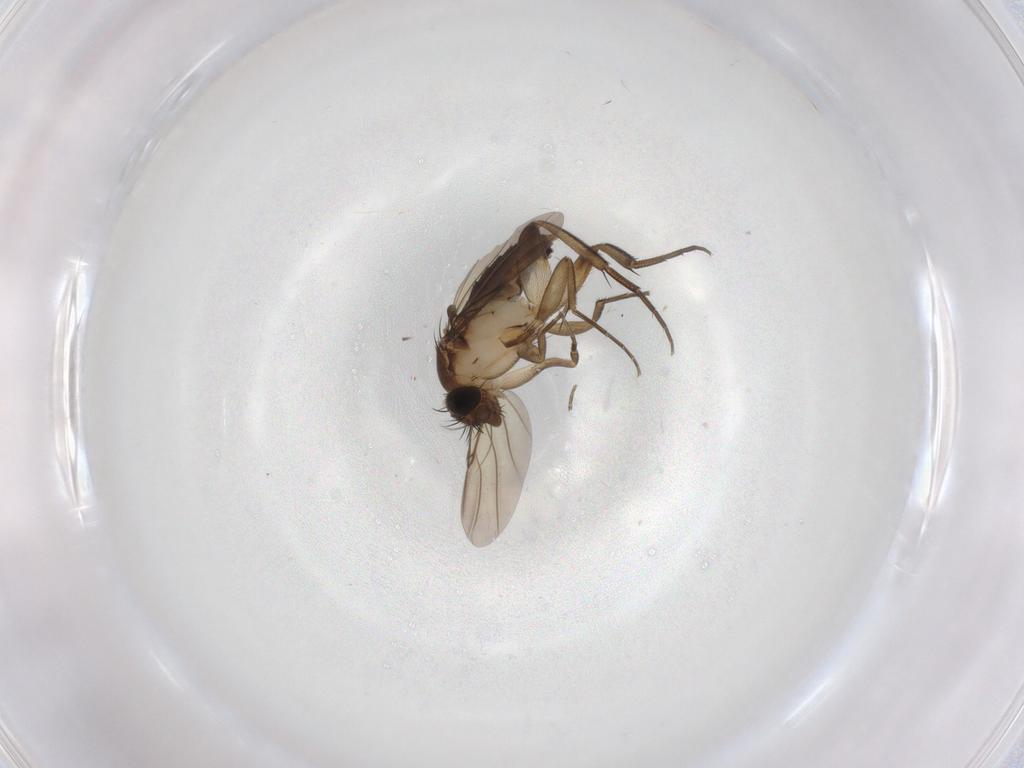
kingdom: Animalia
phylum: Arthropoda
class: Insecta
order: Diptera
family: Phoridae
